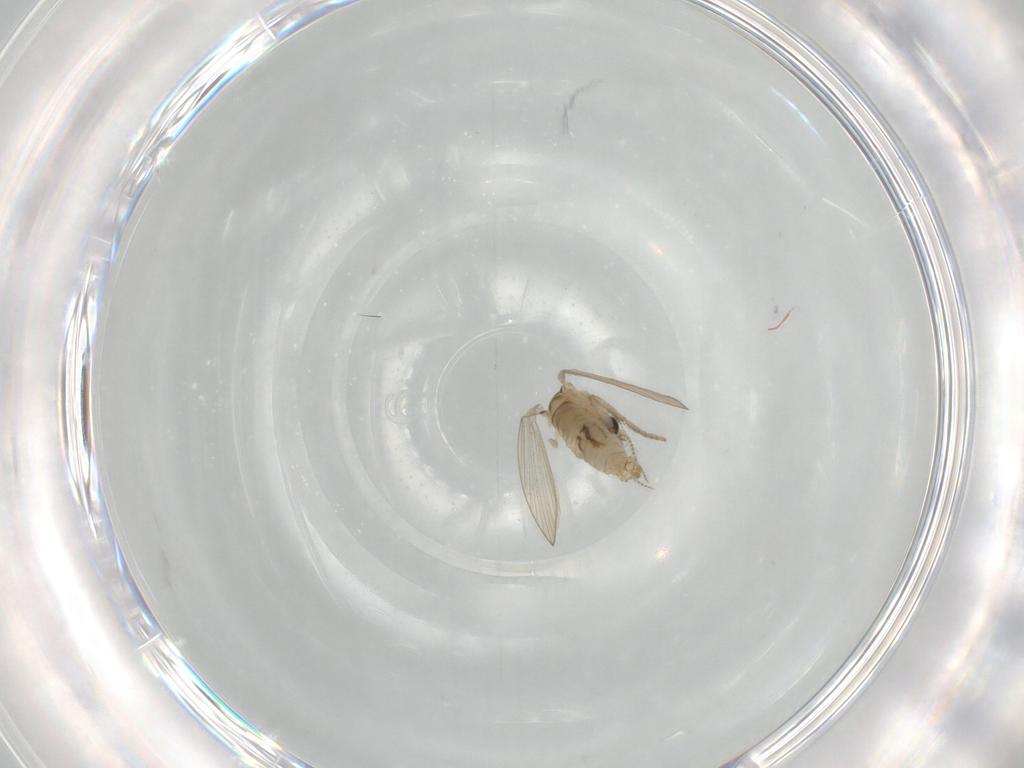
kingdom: Animalia
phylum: Arthropoda
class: Insecta
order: Diptera
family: Psychodidae
